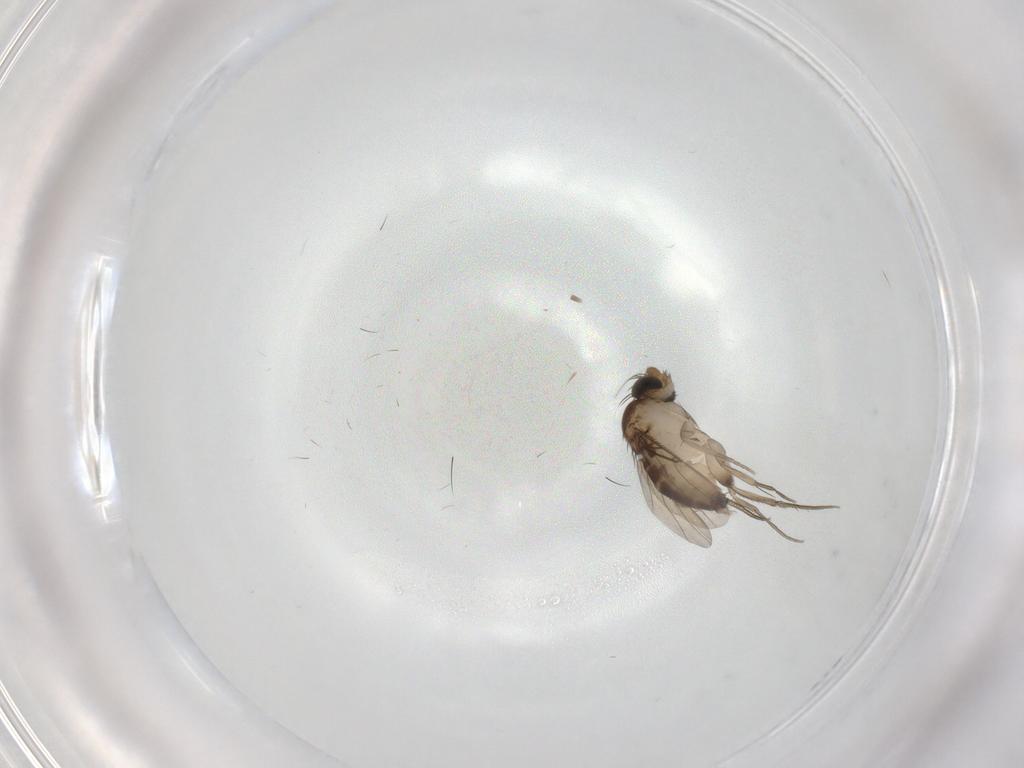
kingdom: Animalia
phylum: Arthropoda
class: Insecta
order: Diptera
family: Phoridae
